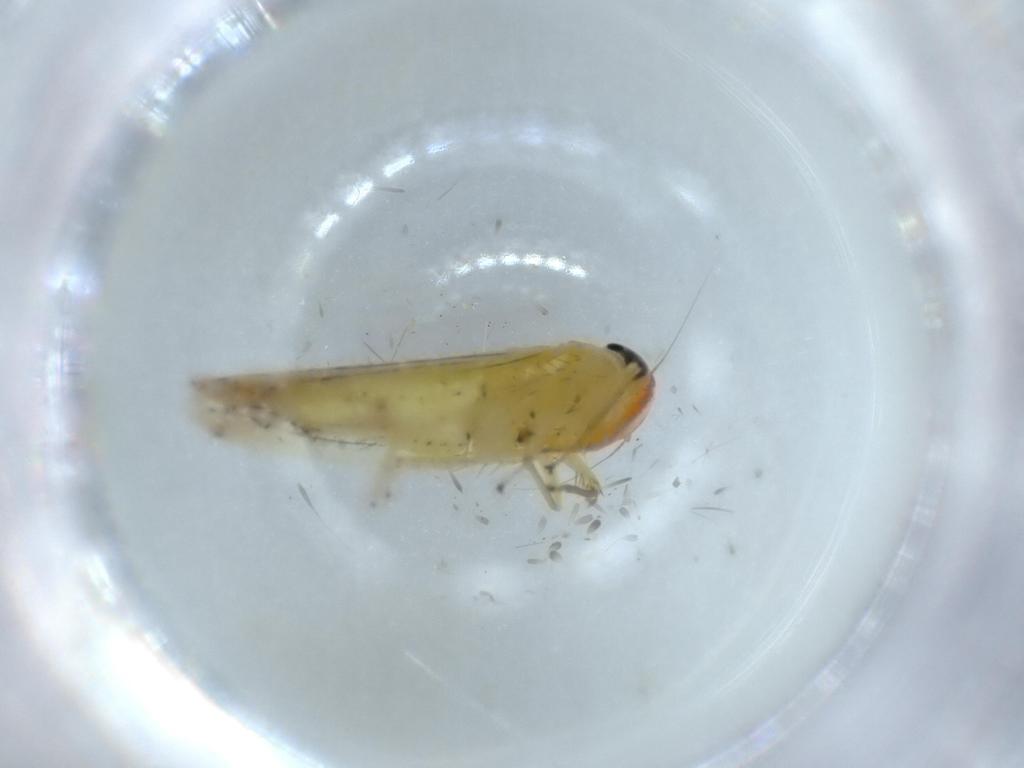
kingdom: Animalia
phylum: Arthropoda
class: Insecta
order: Hemiptera
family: Cicadellidae
